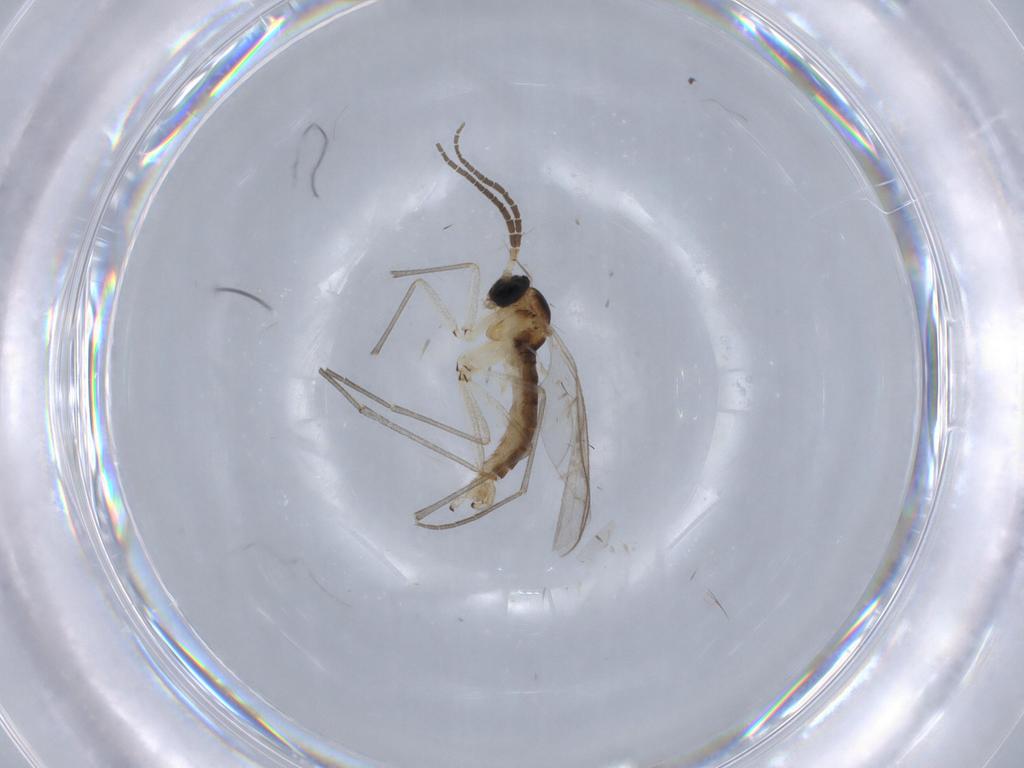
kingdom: Animalia
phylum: Arthropoda
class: Insecta
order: Diptera
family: Sciaridae
